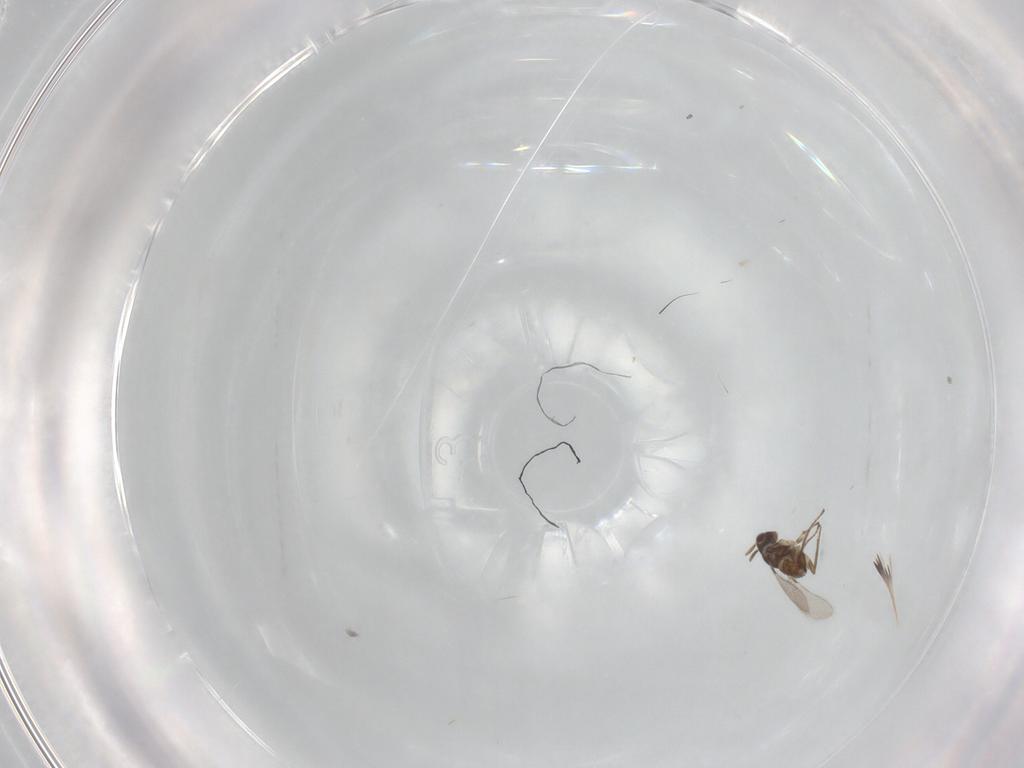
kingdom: Animalia
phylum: Arthropoda
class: Insecta
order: Hymenoptera
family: Mymaridae
